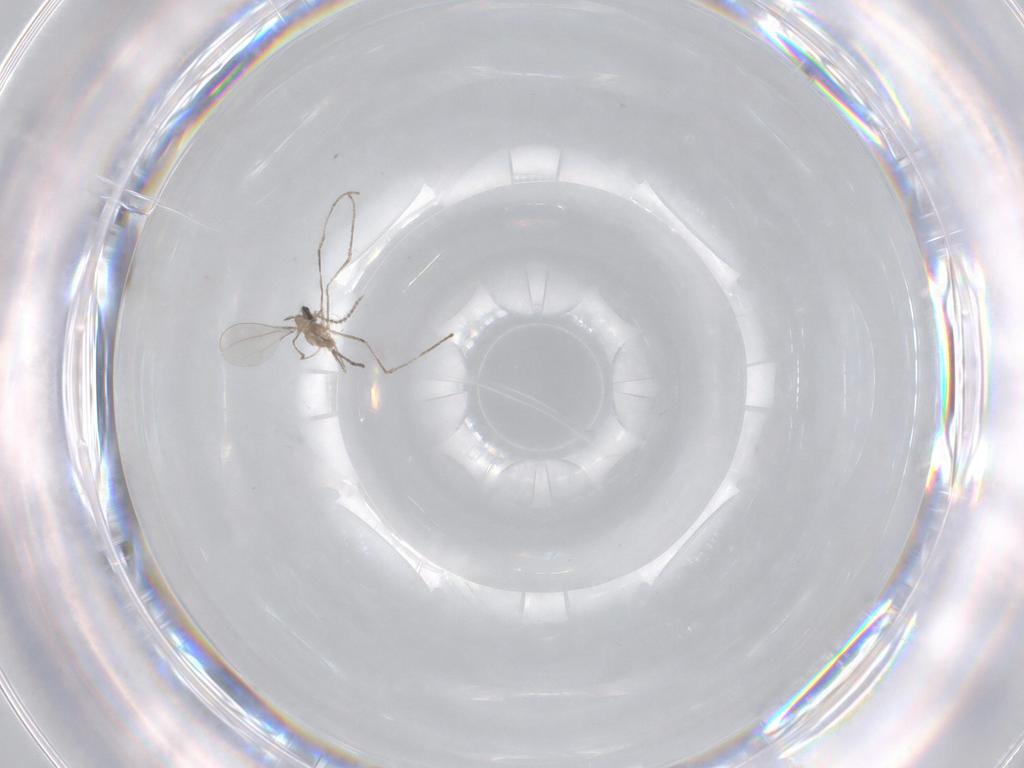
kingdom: Animalia
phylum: Arthropoda
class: Insecta
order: Diptera
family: Cecidomyiidae
